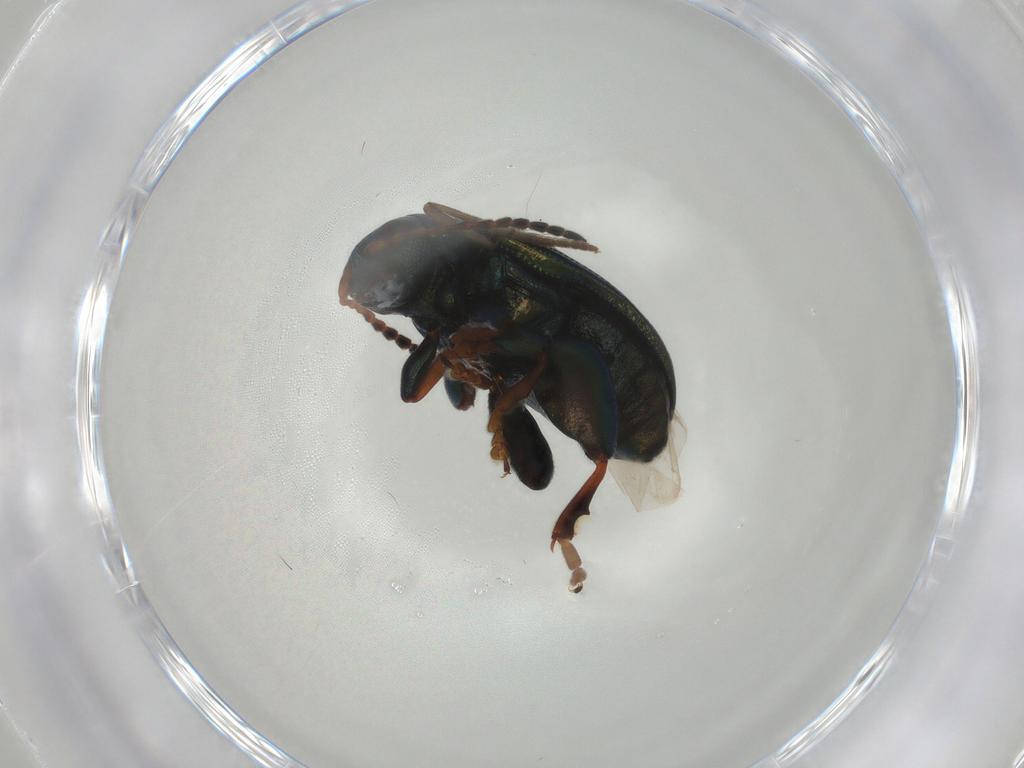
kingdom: Animalia
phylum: Arthropoda
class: Insecta
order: Coleoptera
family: Chrysomelidae
